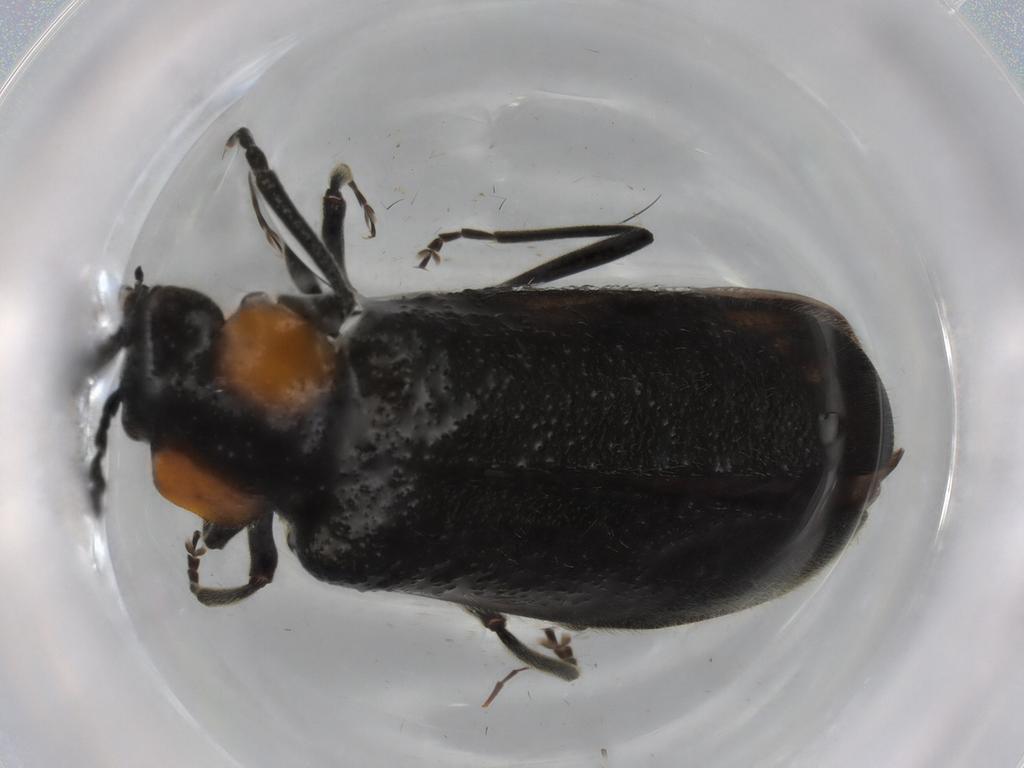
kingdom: Animalia
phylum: Arthropoda
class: Insecta
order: Coleoptera
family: Cantharidae
